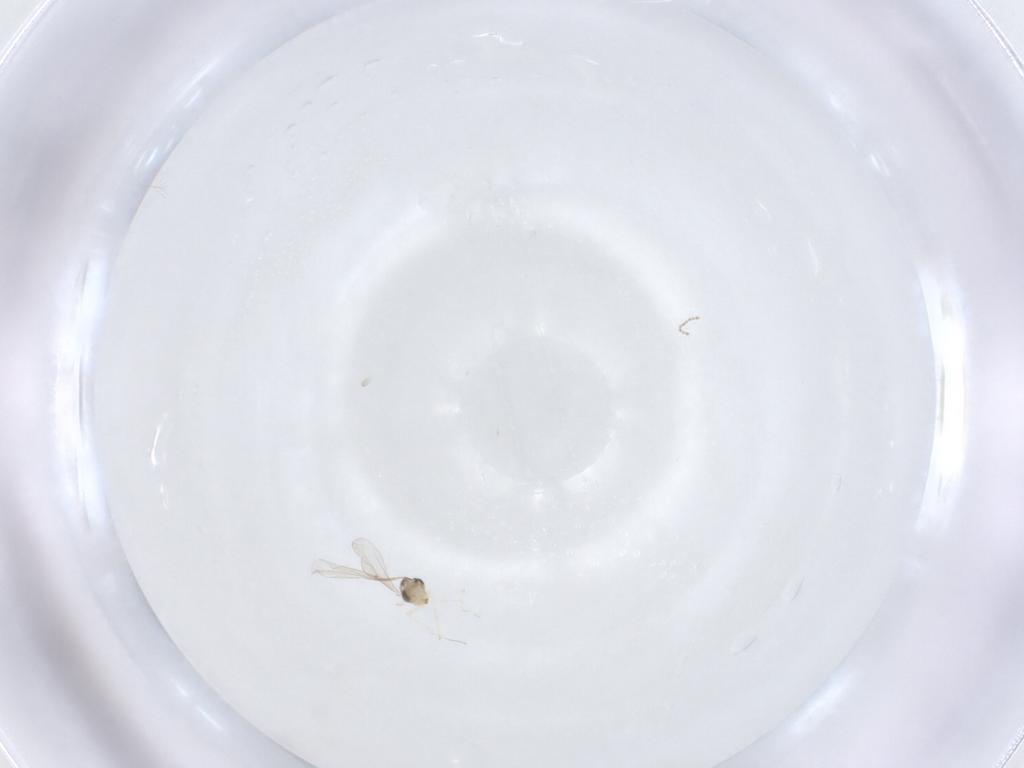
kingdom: Animalia
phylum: Arthropoda
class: Insecta
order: Diptera
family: Cecidomyiidae
